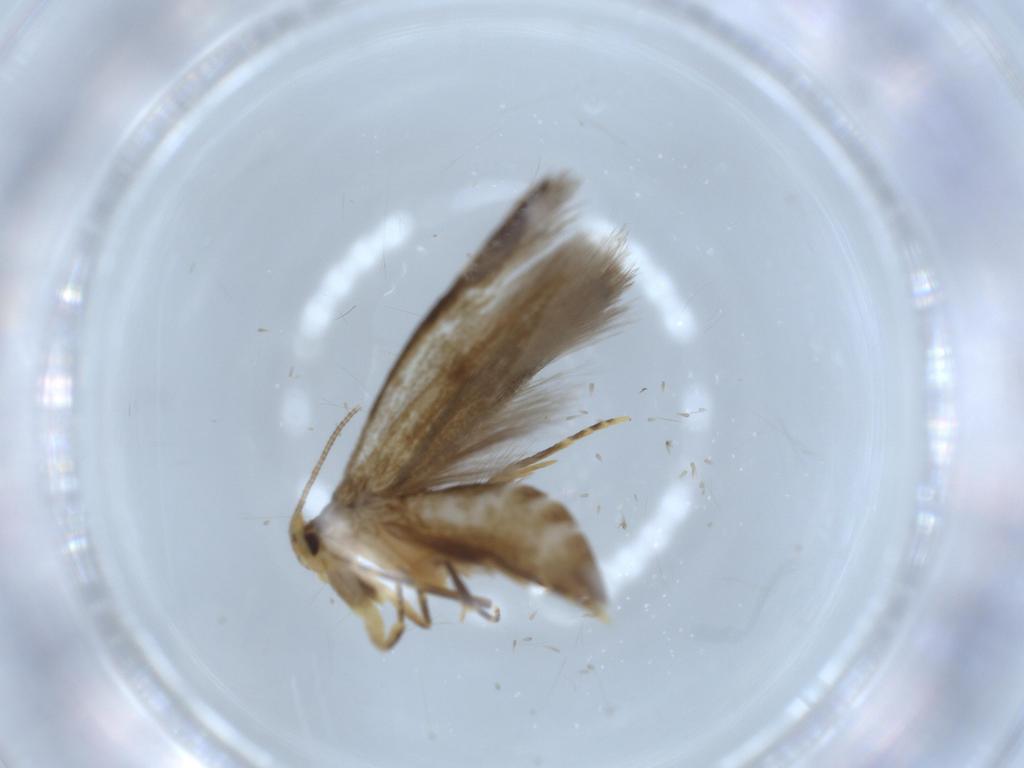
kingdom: Animalia
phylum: Arthropoda
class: Insecta
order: Lepidoptera
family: Tineidae
